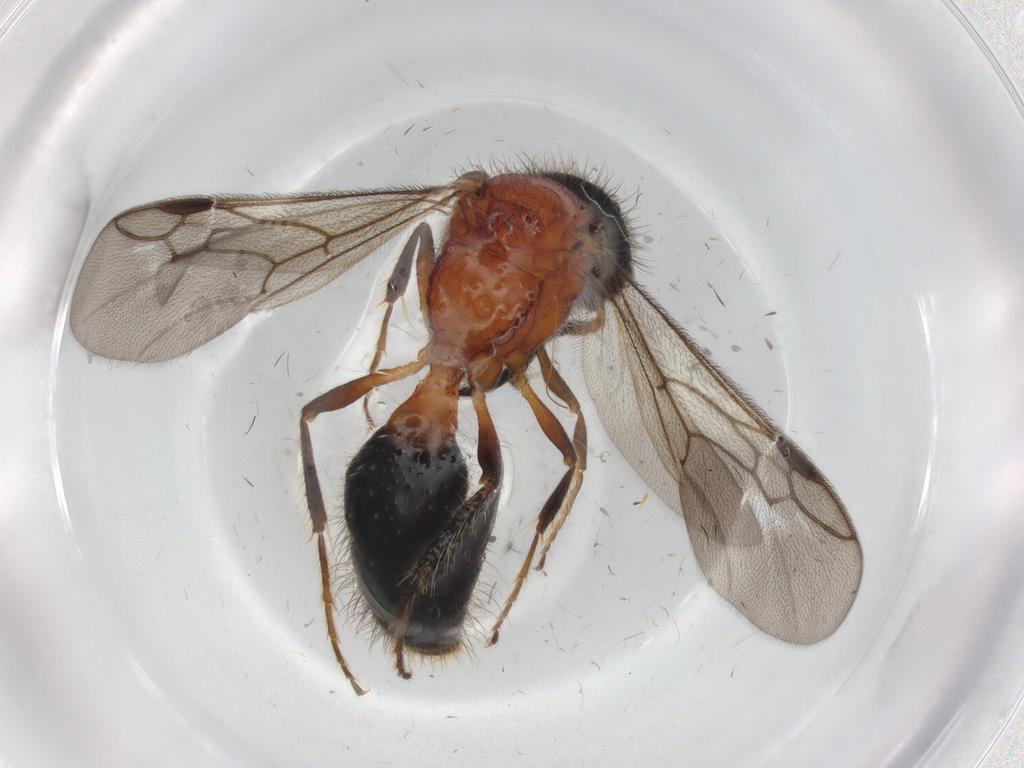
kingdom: Animalia
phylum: Arthropoda
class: Insecta
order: Hymenoptera
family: Mutillidae
